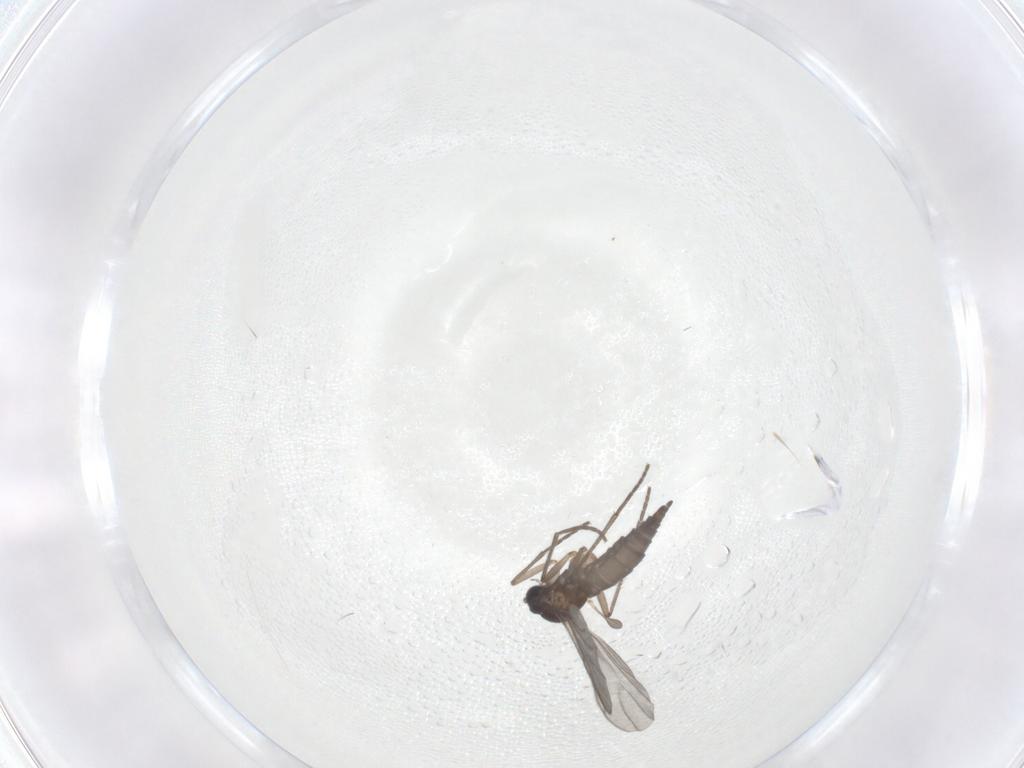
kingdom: Animalia
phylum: Arthropoda
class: Insecta
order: Diptera
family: Sciaridae
